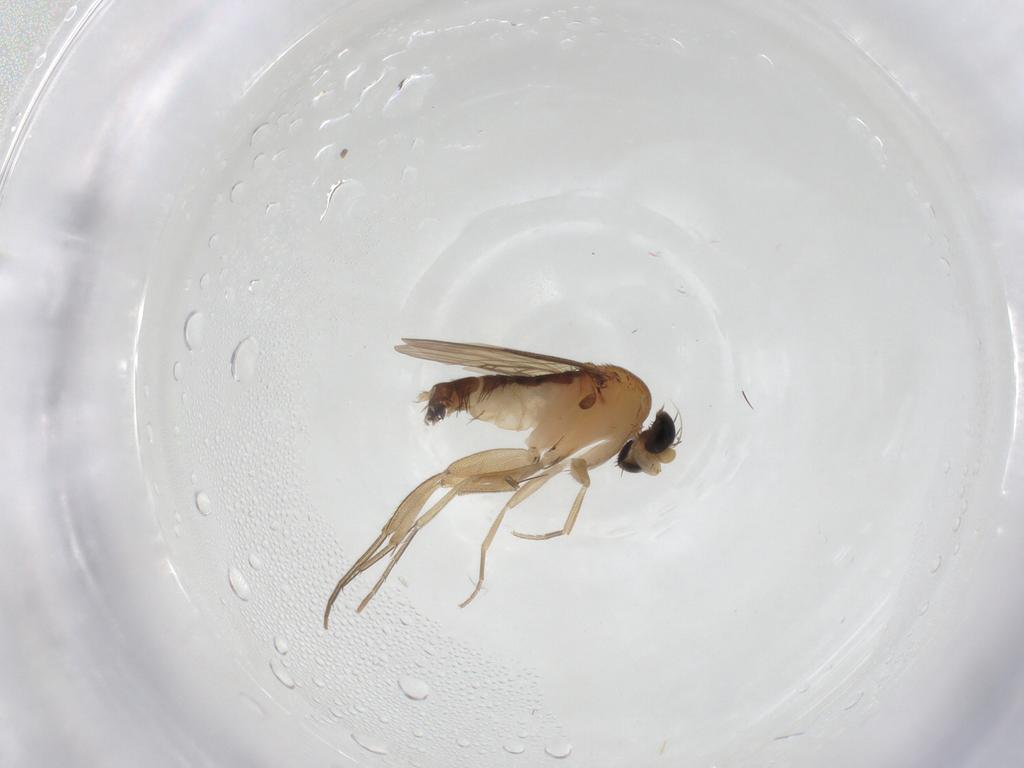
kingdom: Animalia
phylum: Arthropoda
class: Insecta
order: Diptera
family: Phoridae
